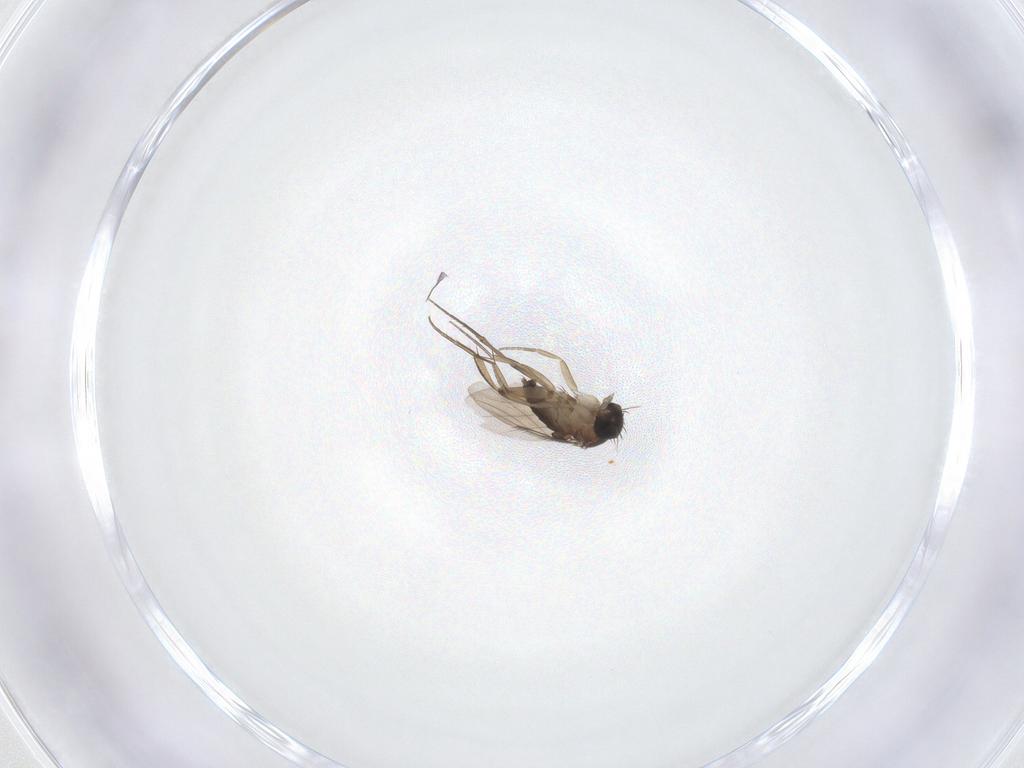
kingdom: Animalia
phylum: Arthropoda
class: Insecta
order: Diptera
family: Phoridae
